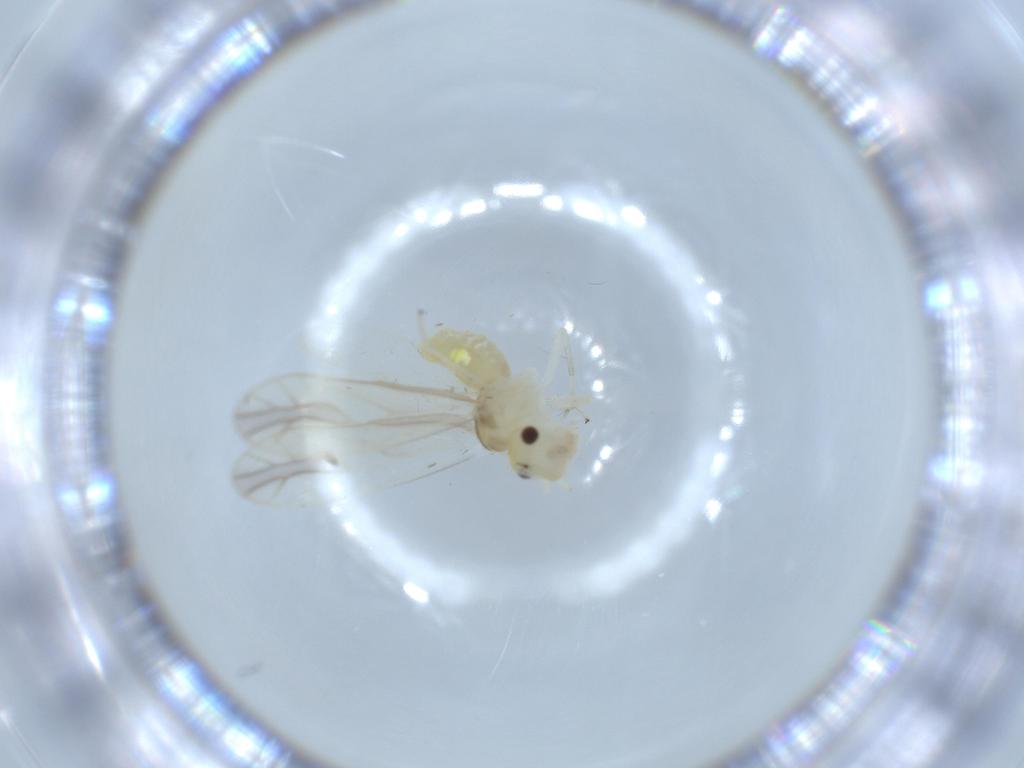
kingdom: Animalia
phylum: Arthropoda
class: Insecta
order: Psocodea
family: Caeciliusidae
